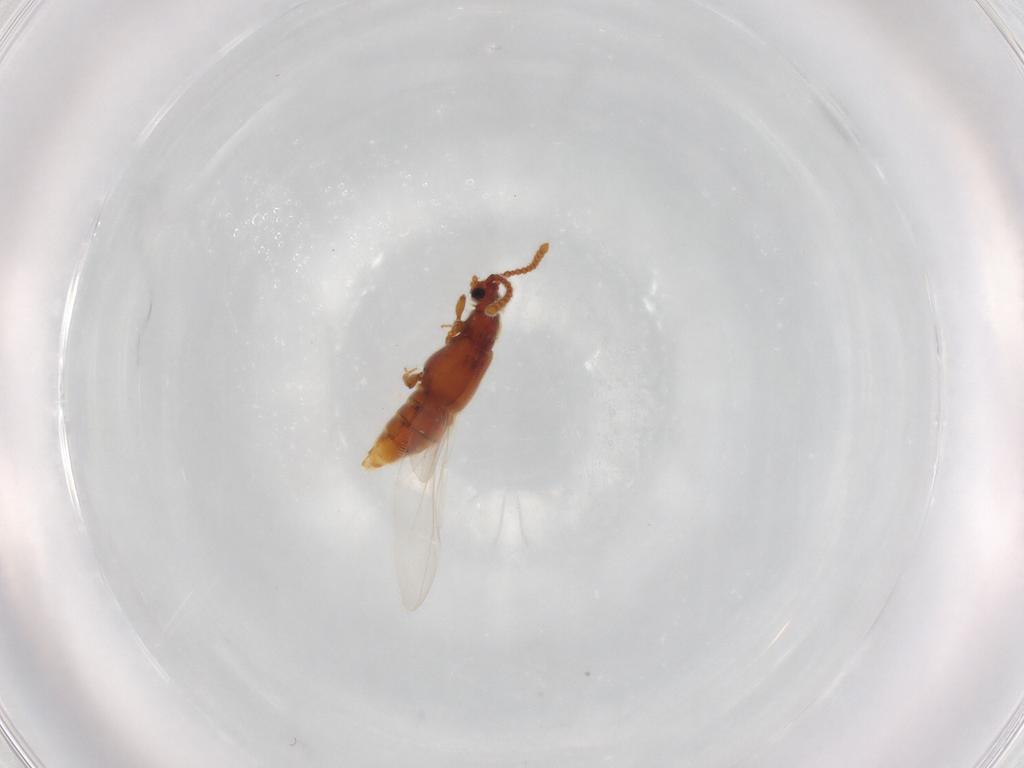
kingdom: Animalia
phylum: Arthropoda
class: Insecta
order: Coleoptera
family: Staphylinidae
